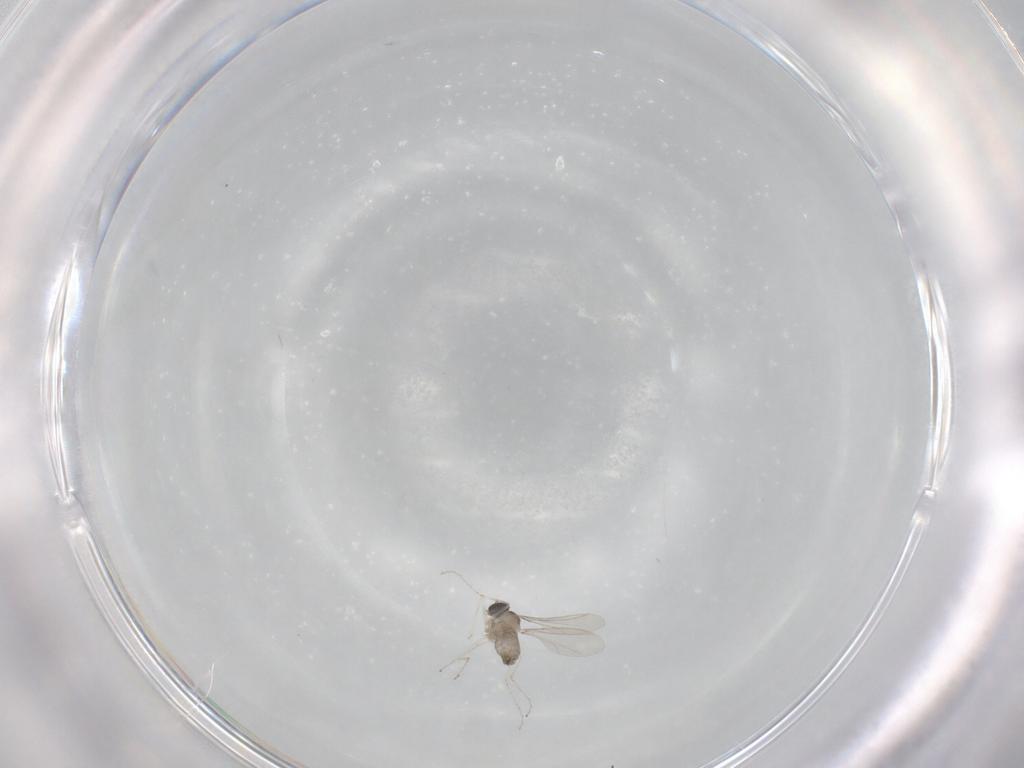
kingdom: Animalia
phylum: Arthropoda
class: Insecta
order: Diptera
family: Cecidomyiidae
